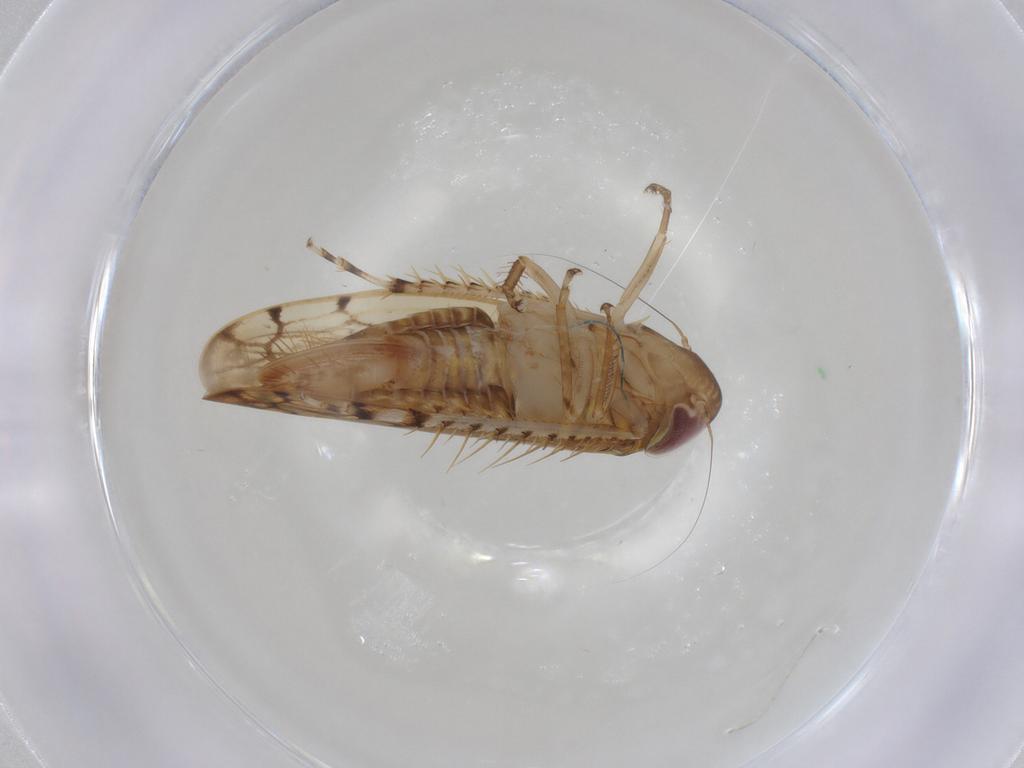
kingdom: Animalia
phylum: Arthropoda
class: Insecta
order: Hemiptera
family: Cicadellidae
